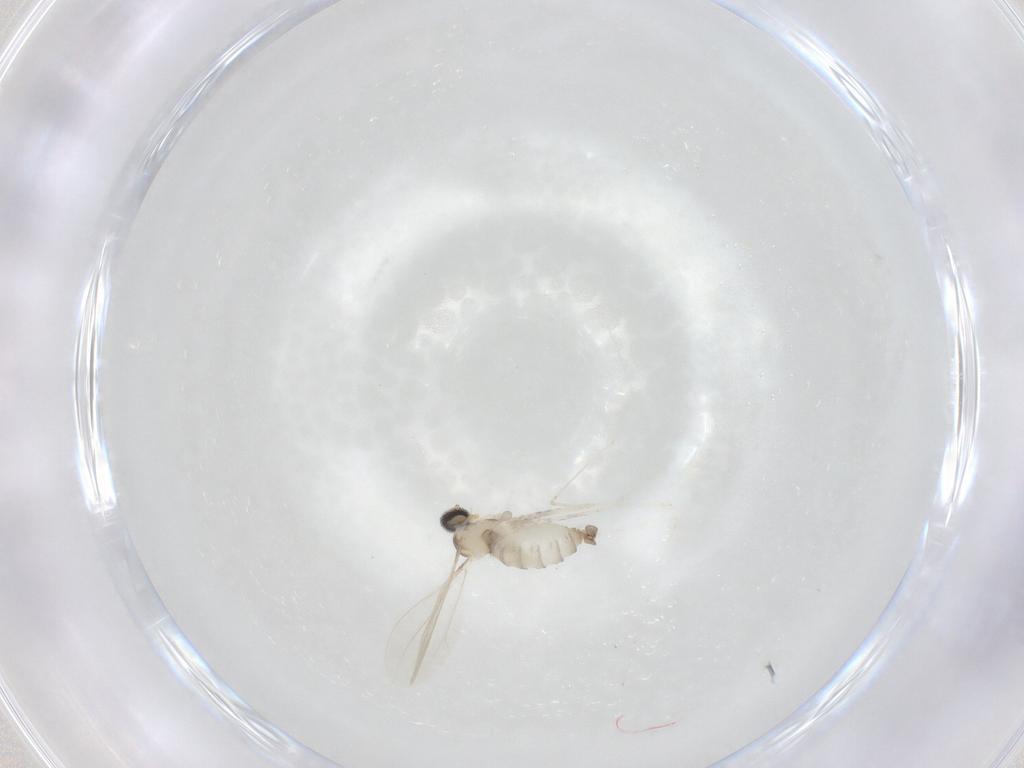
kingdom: Animalia
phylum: Arthropoda
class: Insecta
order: Diptera
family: Cecidomyiidae
